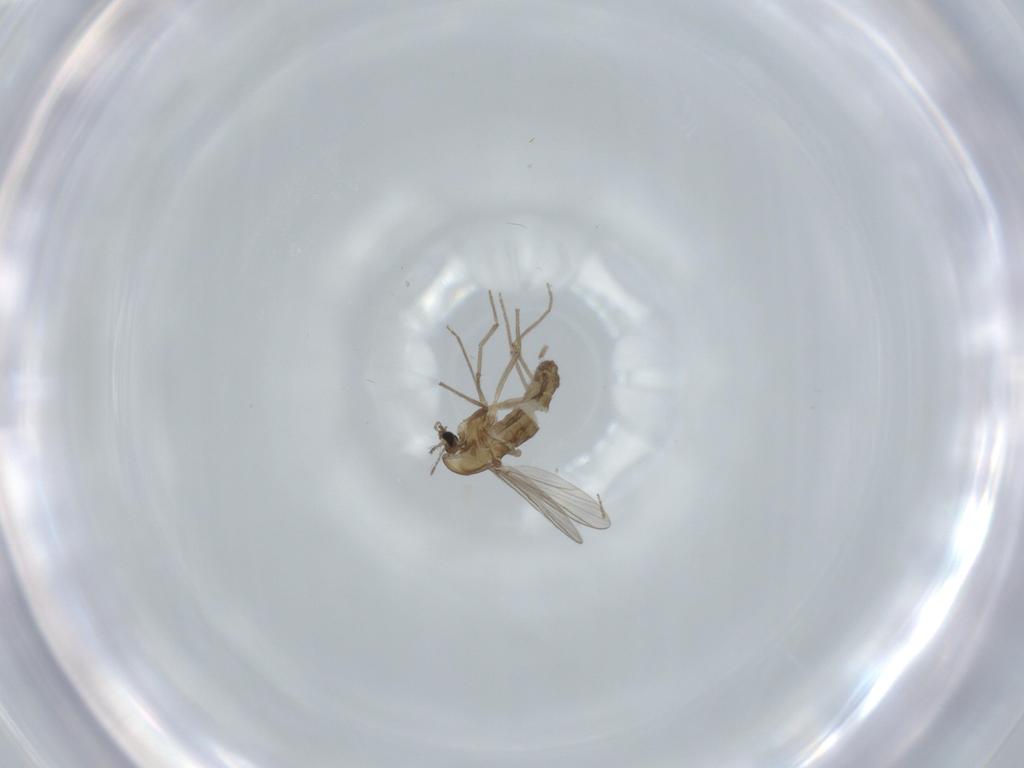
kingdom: Animalia
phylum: Arthropoda
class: Insecta
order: Diptera
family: Chironomidae
